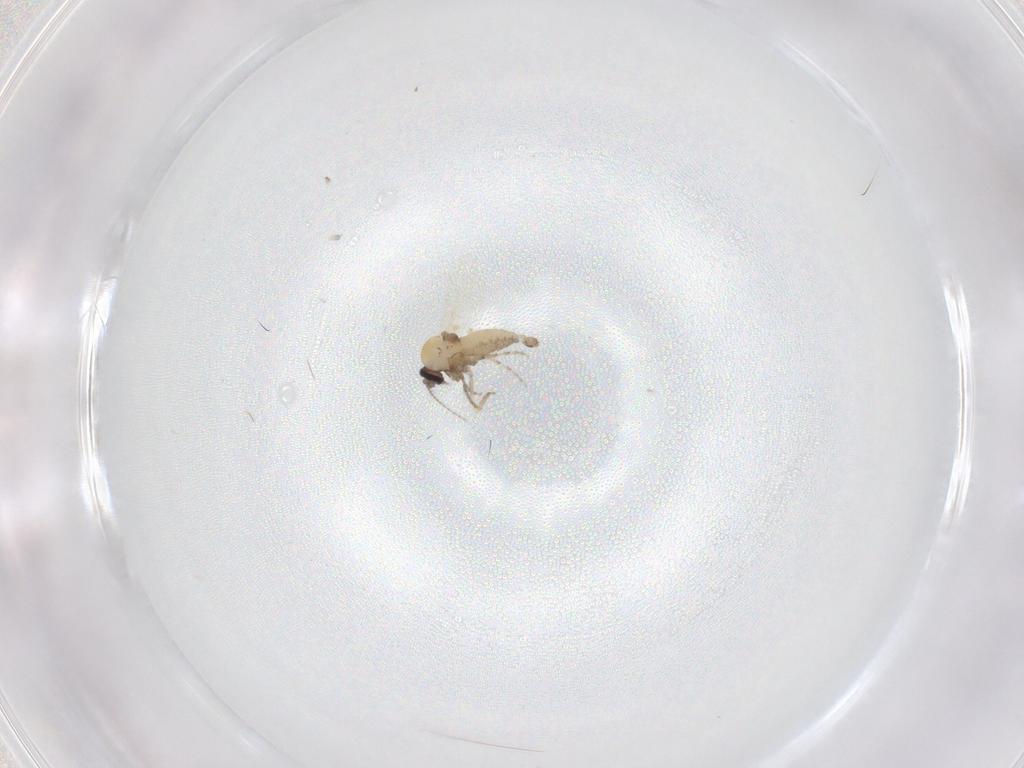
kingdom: Animalia
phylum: Arthropoda
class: Insecta
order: Diptera
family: Ceratopogonidae
